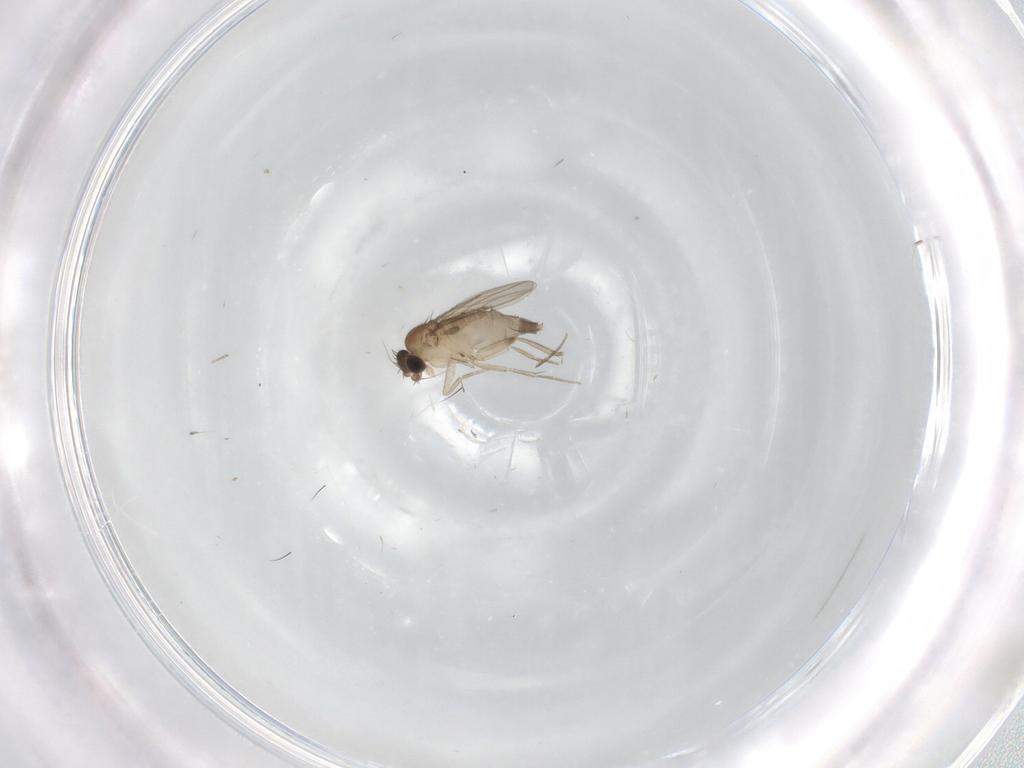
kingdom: Animalia
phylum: Arthropoda
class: Insecta
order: Diptera
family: Phoridae
